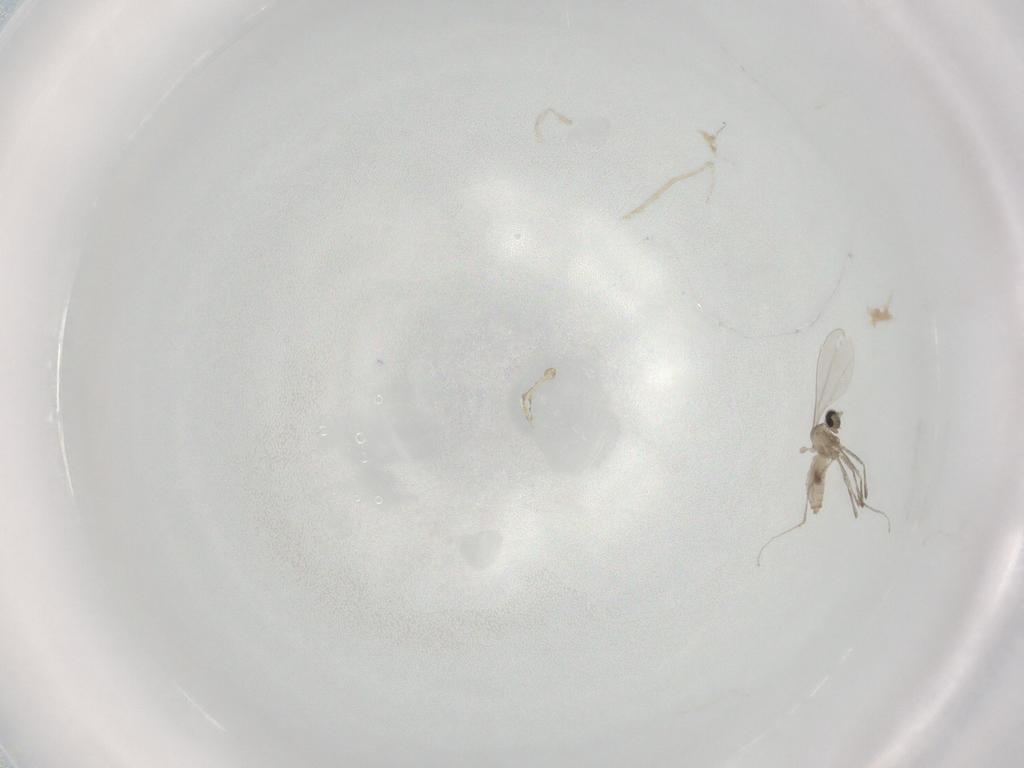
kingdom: Animalia
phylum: Arthropoda
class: Insecta
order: Diptera
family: Cecidomyiidae
